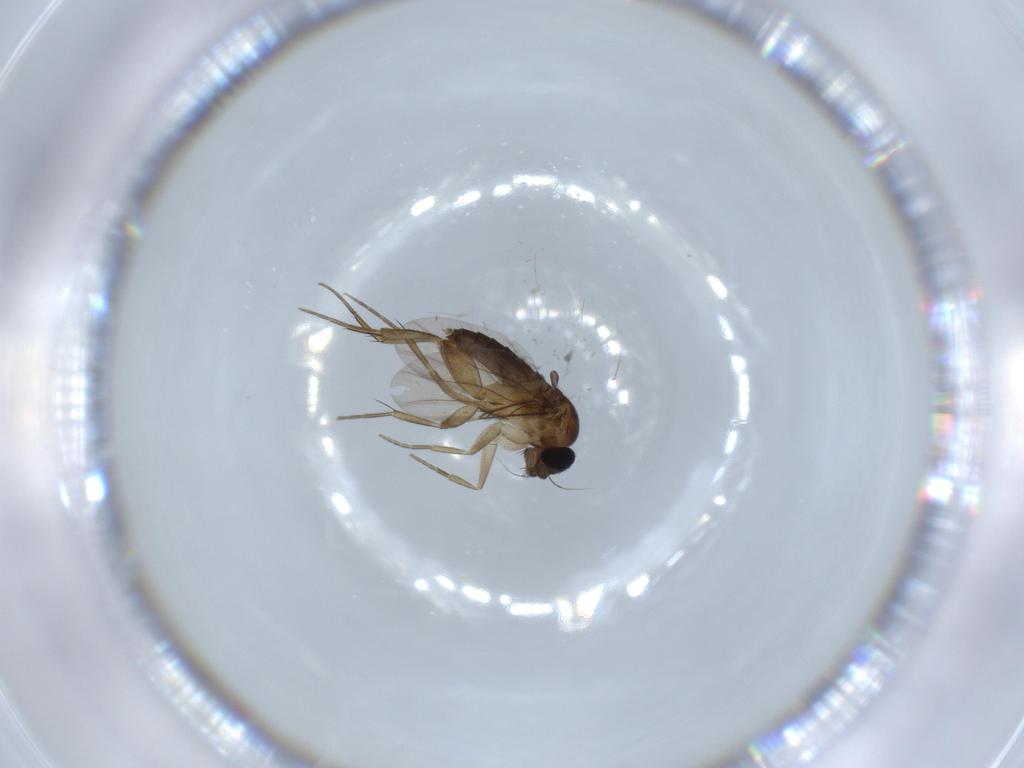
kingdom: Animalia
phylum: Arthropoda
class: Insecta
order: Diptera
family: Phoridae
